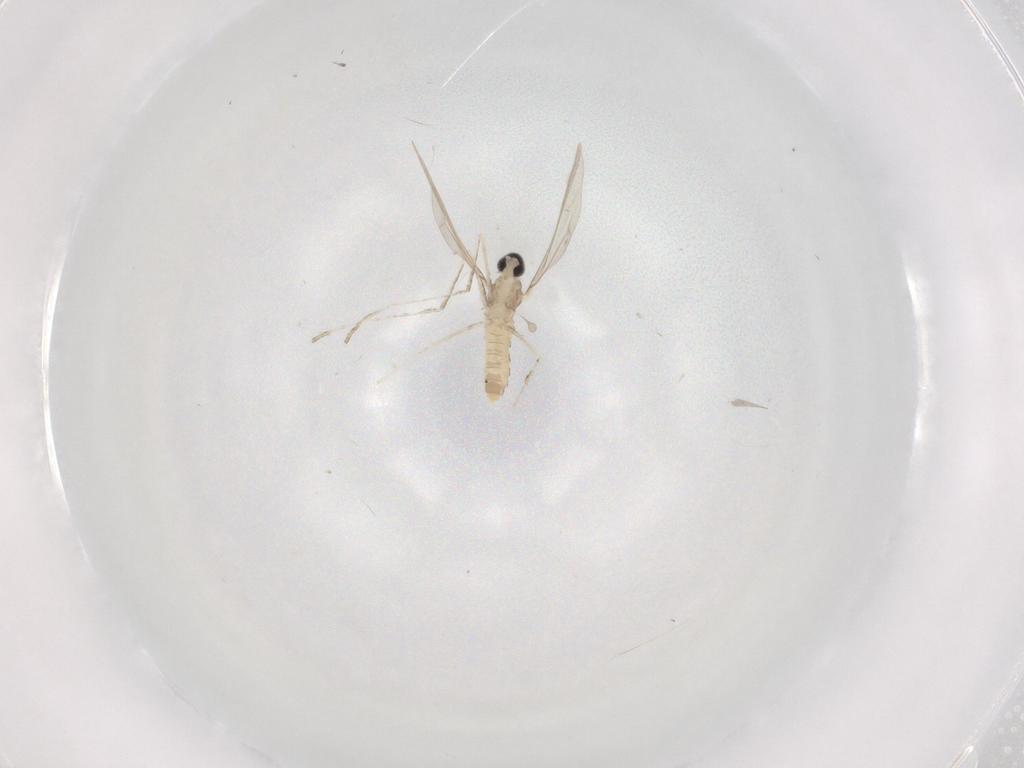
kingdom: Animalia
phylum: Arthropoda
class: Insecta
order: Diptera
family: Cecidomyiidae
